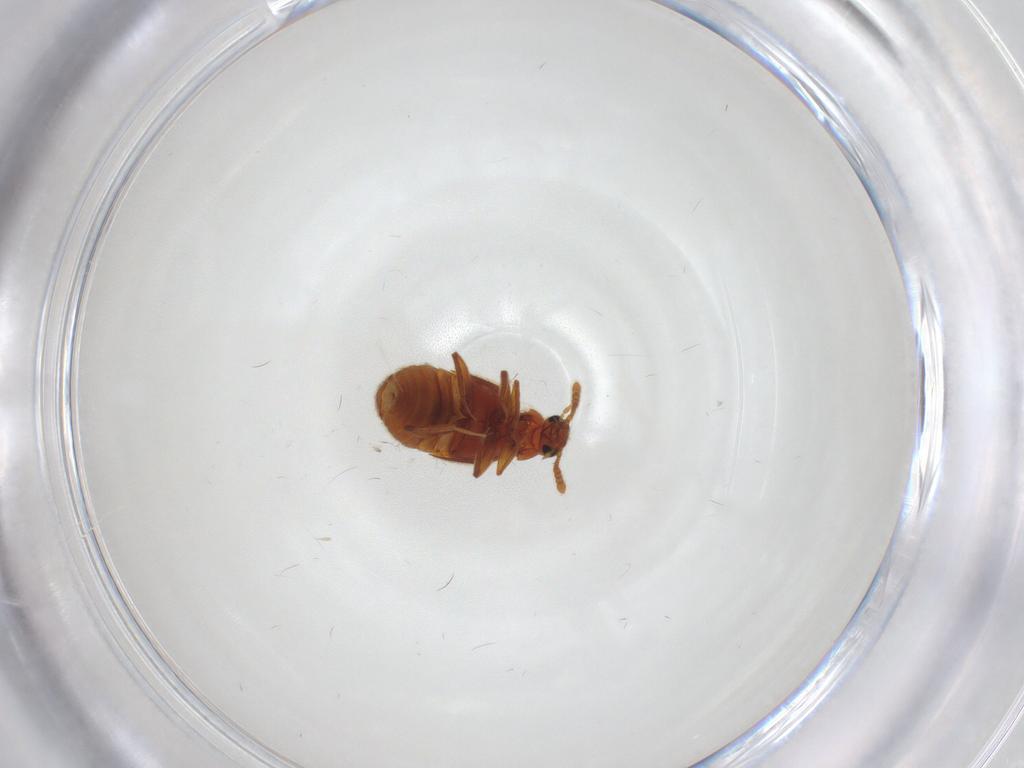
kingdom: Animalia
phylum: Arthropoda
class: Insecta
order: Coleoptera
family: Staphylinidae
